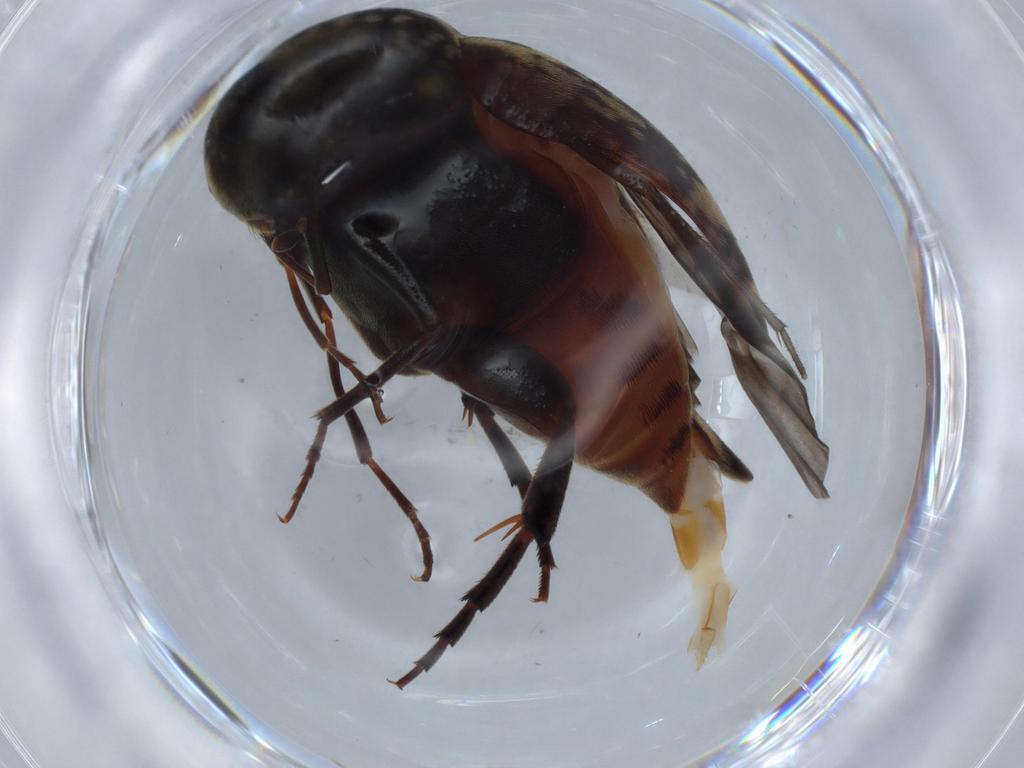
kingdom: Animalia
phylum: Arthropoda
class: Insecta
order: Coleoptera
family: Mordellidae
